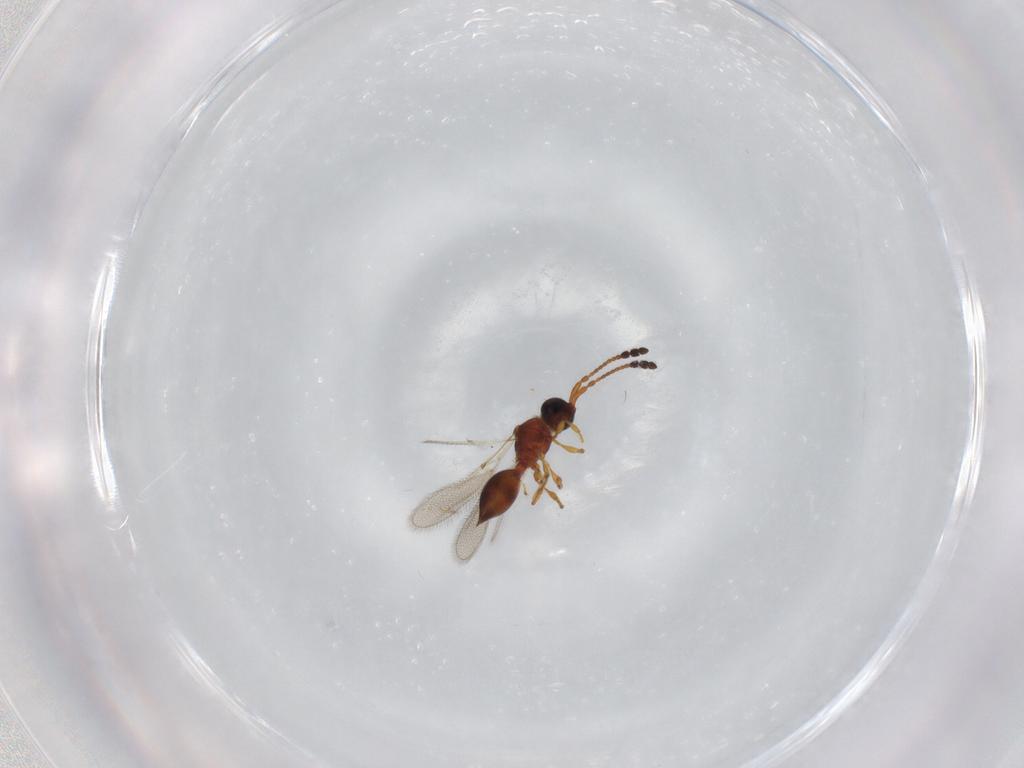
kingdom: Animalia
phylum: Arthropoda
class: Insecta
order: Hymenoptera
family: Diapriidae
